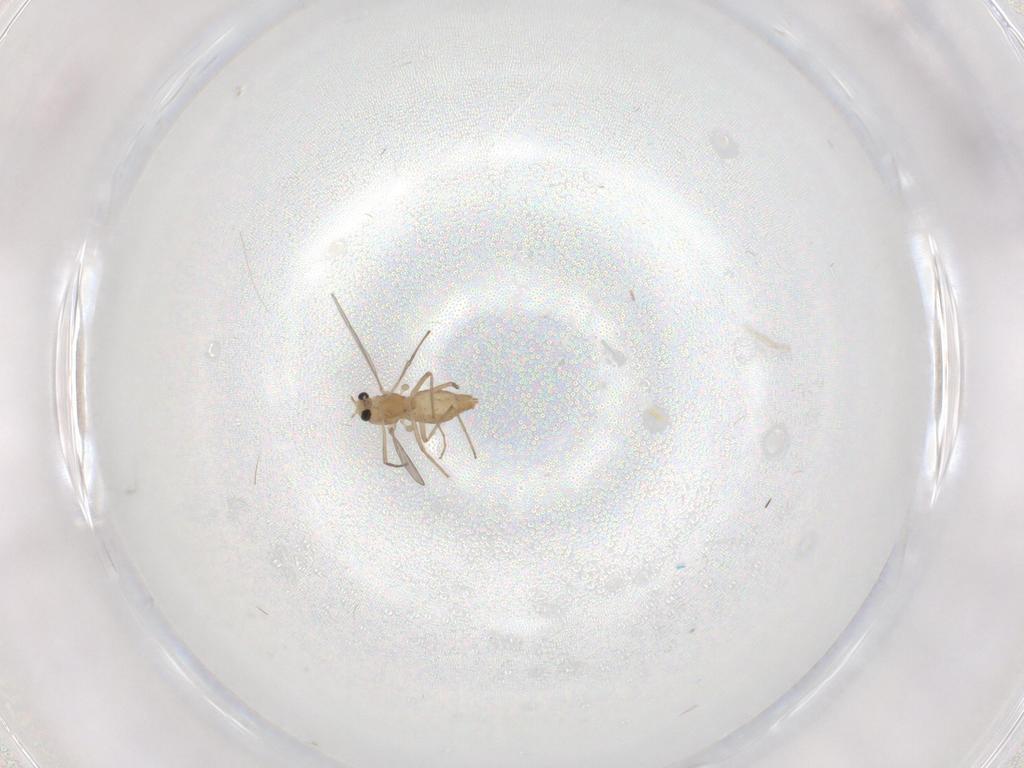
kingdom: Animalia
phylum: Arthropoda
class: Insecta
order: Diptera
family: Chironomidae
